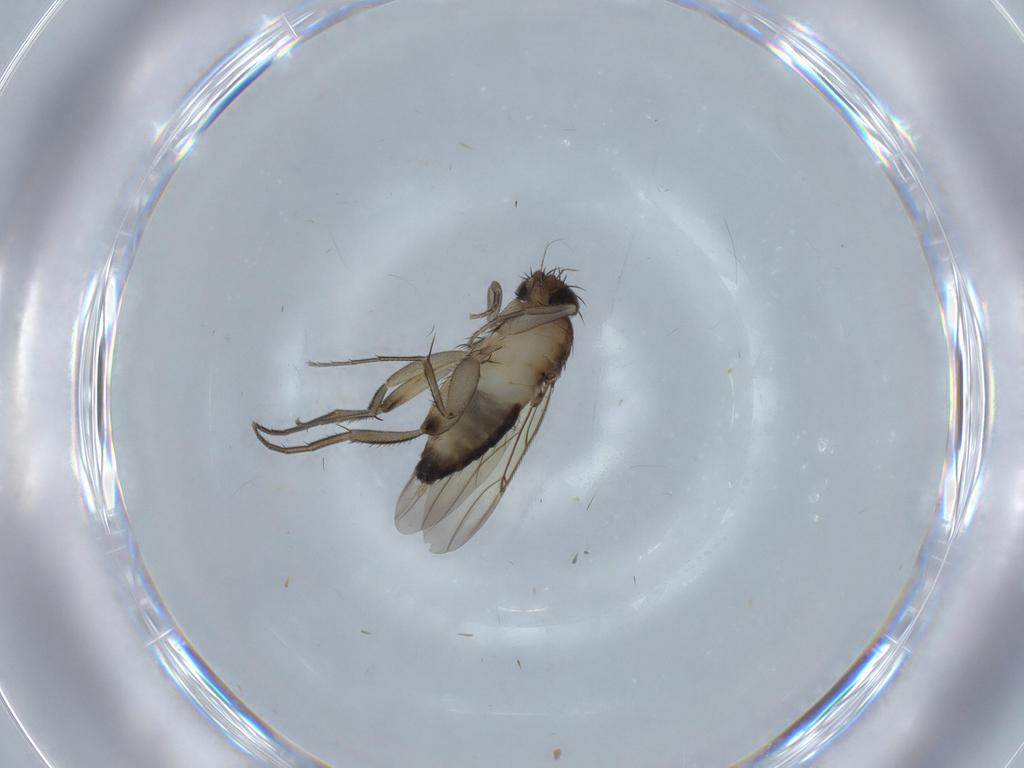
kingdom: Animalia
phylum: Arthropoda
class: Insecta
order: Diptera
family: Phoridae
